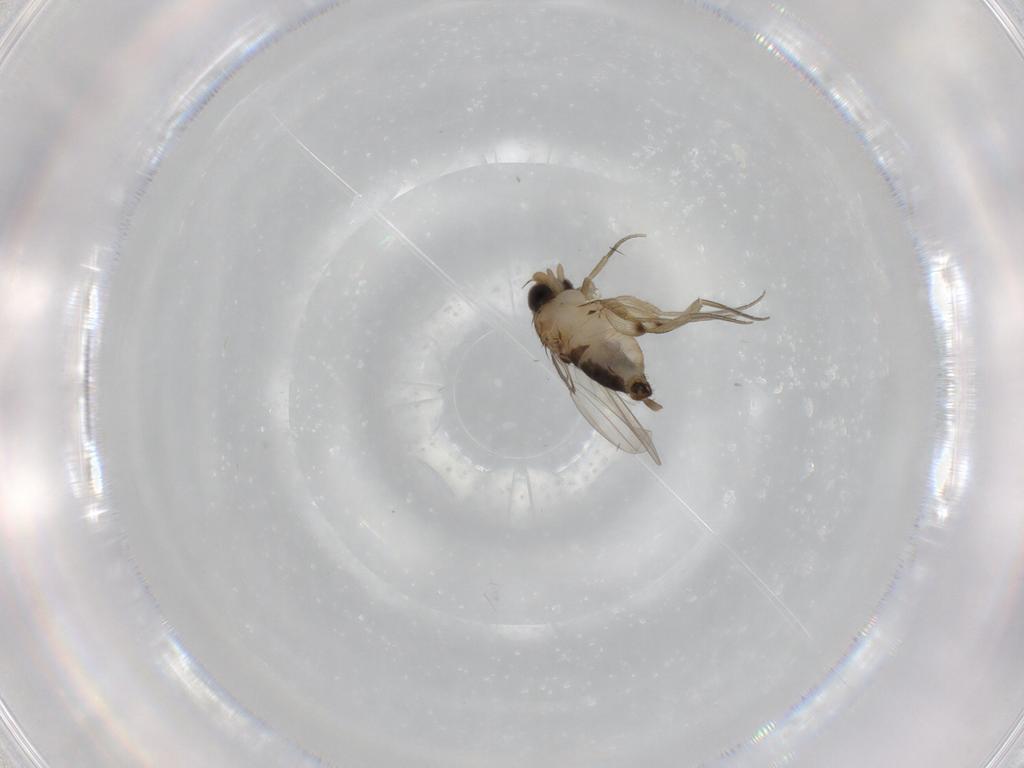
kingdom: Animalia
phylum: Arthropoda
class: Insecta
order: Diptera
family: Phoridae
